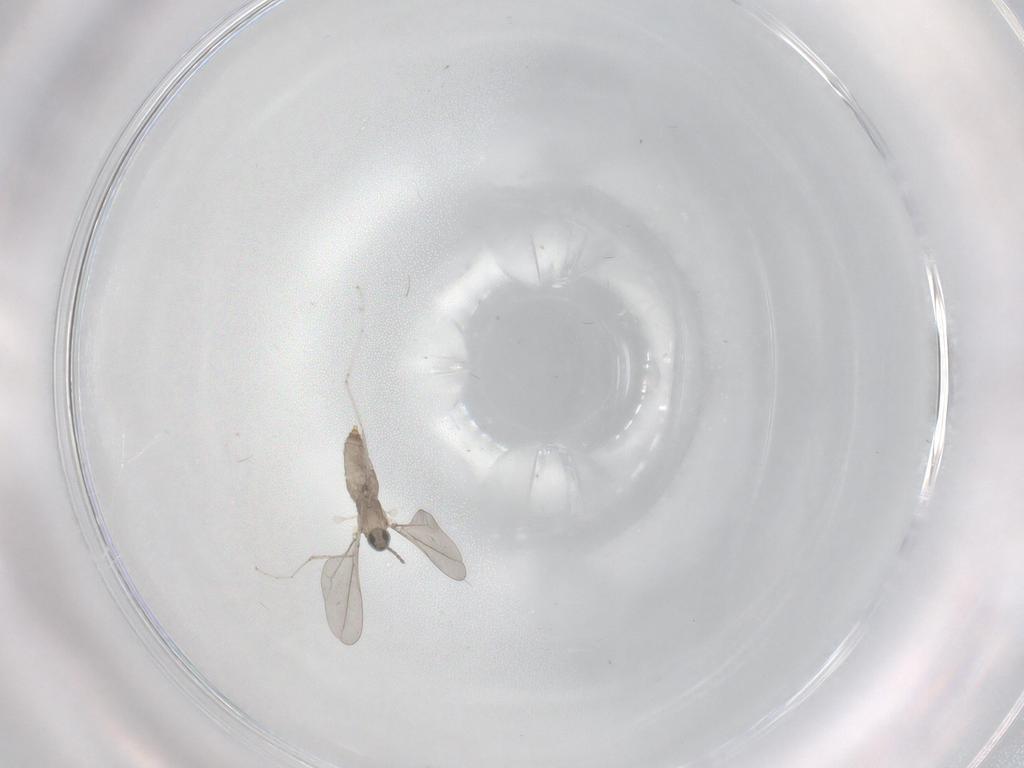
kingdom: Animalia
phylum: Arthropoda
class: Insecta
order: Diptera
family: Cecidomyiidae
